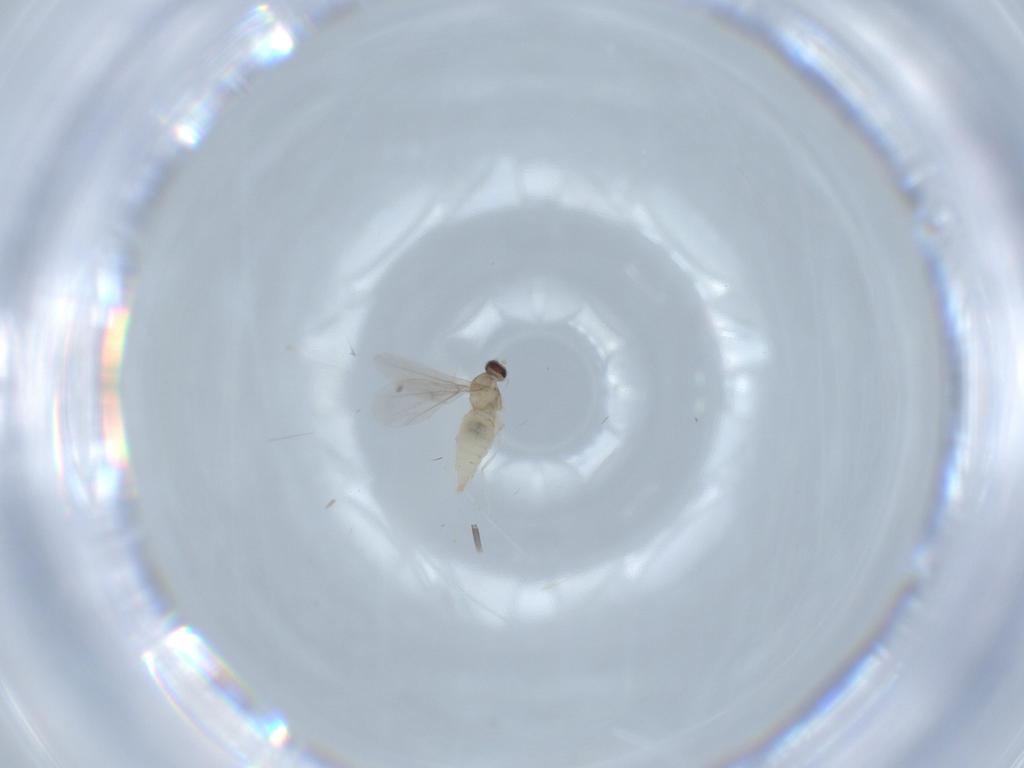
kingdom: Animalia
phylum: Arthropoda
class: Insecta
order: Diptera
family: Cecidomyiidae
